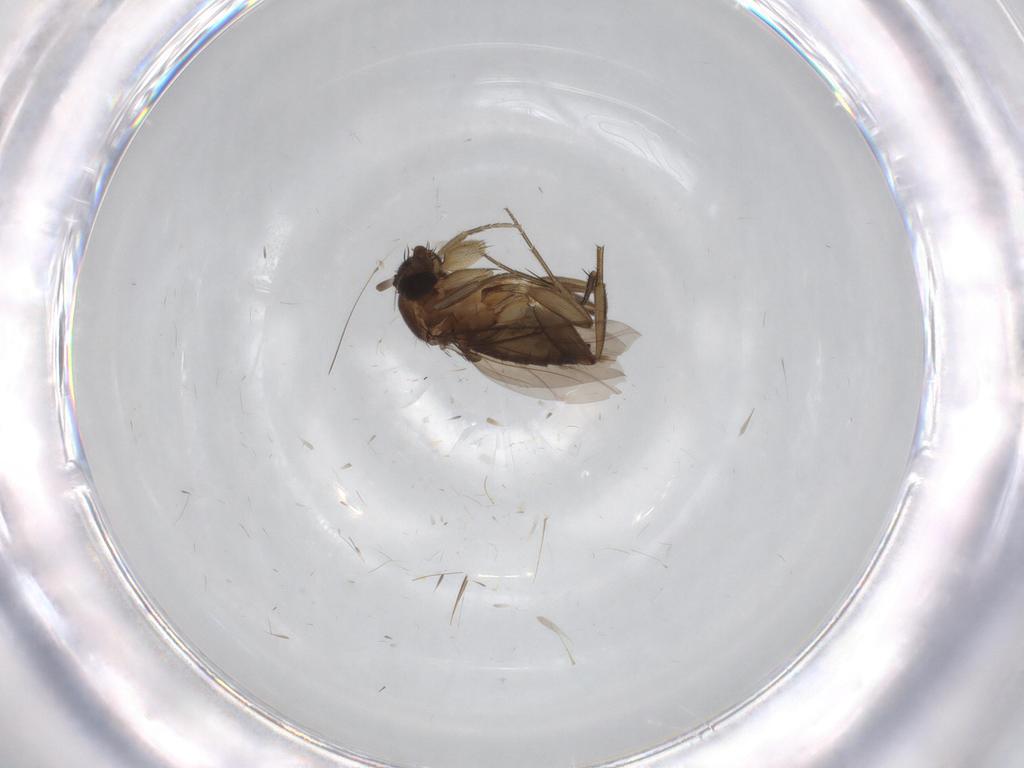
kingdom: Animalia
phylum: Arthropoda
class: Insecta
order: Diptera
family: Phoridae
